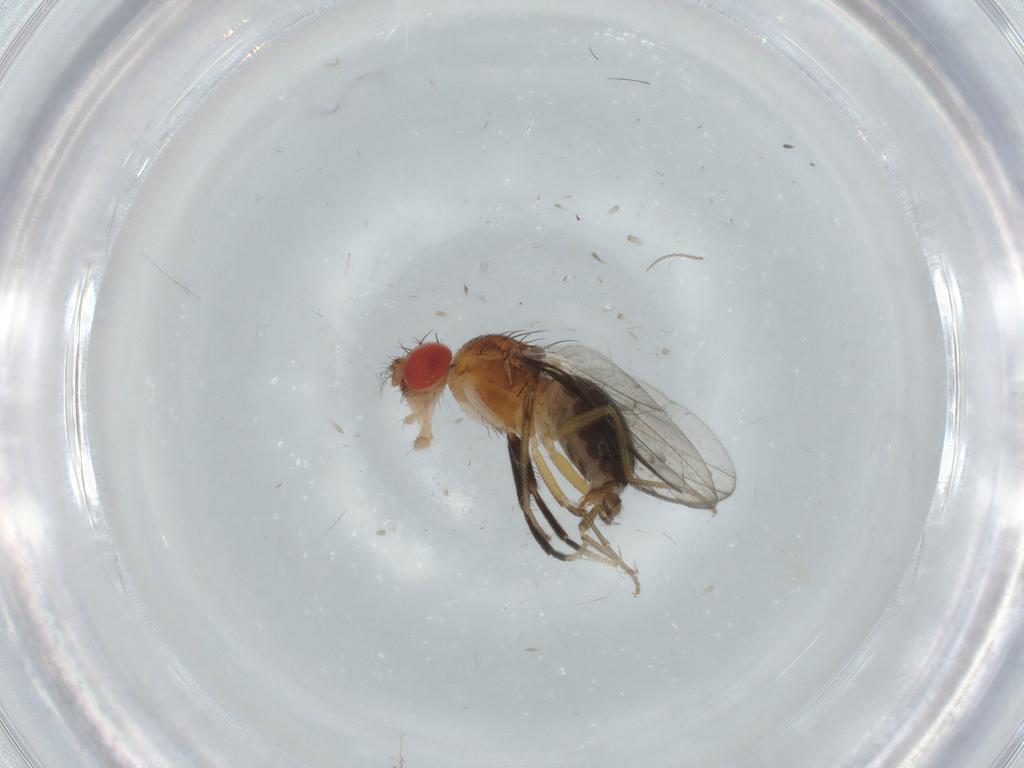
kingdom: Animalia
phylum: Arthropoda
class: Insecta
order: Diptera
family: Drosophilidae
